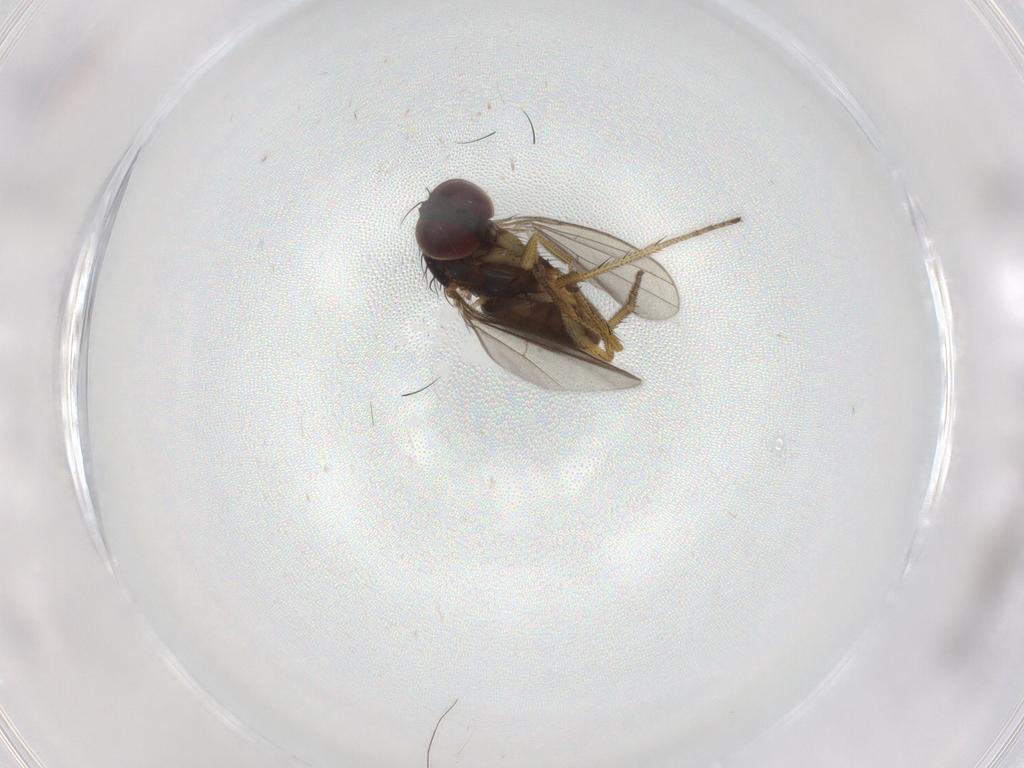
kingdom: Animalia
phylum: Arthropoda
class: Insecta
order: Diptera
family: Dolichopodidae
